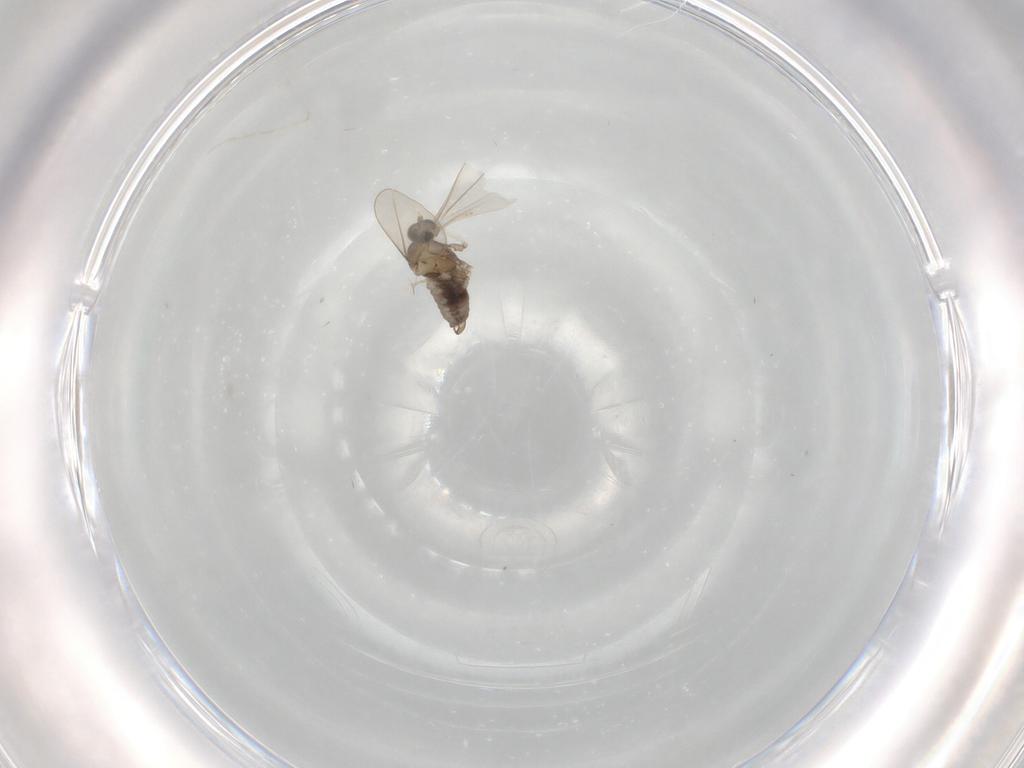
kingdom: Animalia
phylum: Arthropoda
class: Insecta
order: Diptera
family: Cecidomyiidae
